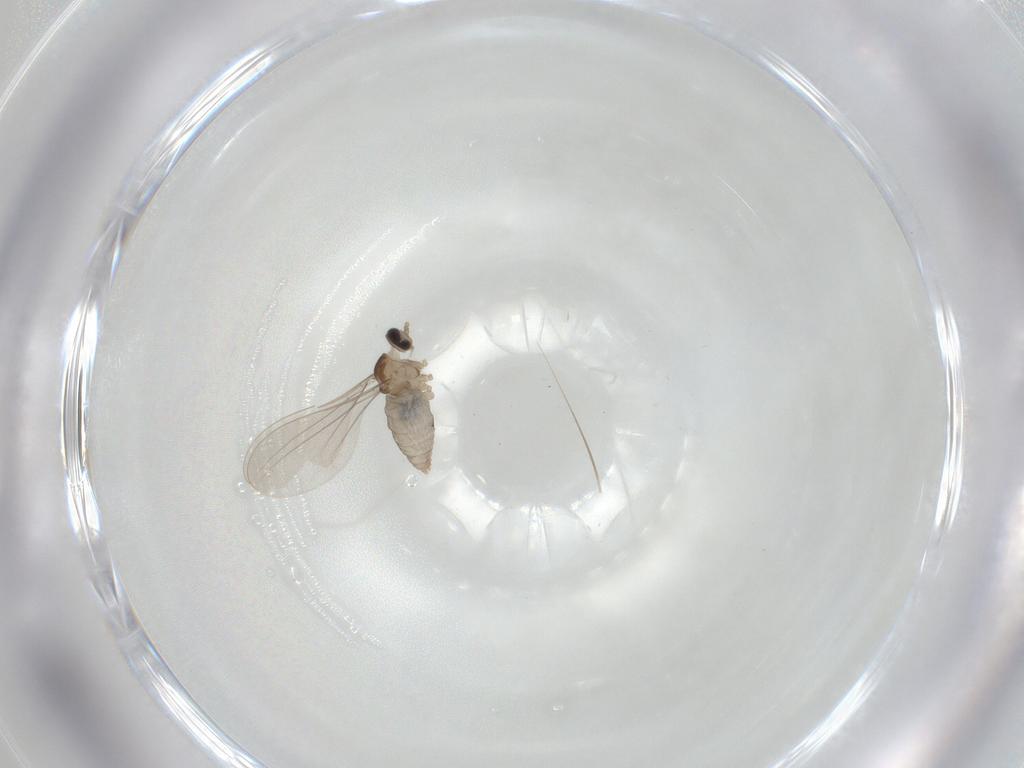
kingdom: Animalia
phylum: Arthropoda
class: Insecta
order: Diptera
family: Cecidomyiidae
